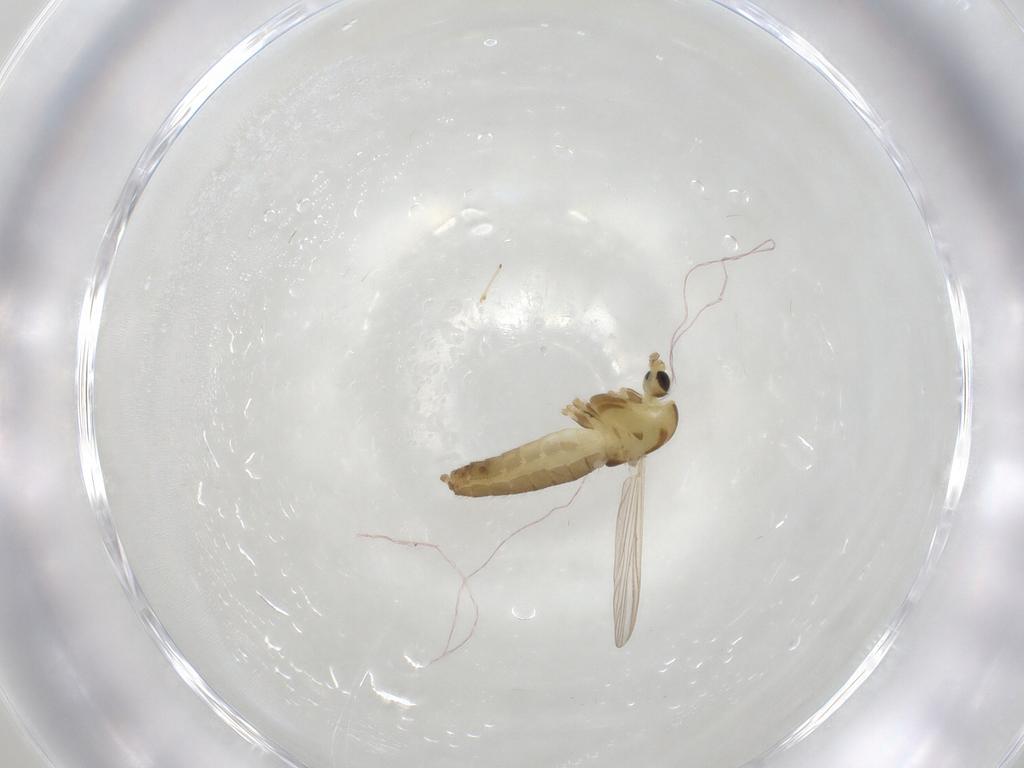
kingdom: Animalia
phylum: Arthropoda
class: Insecta
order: Diptera
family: Chironomidae
